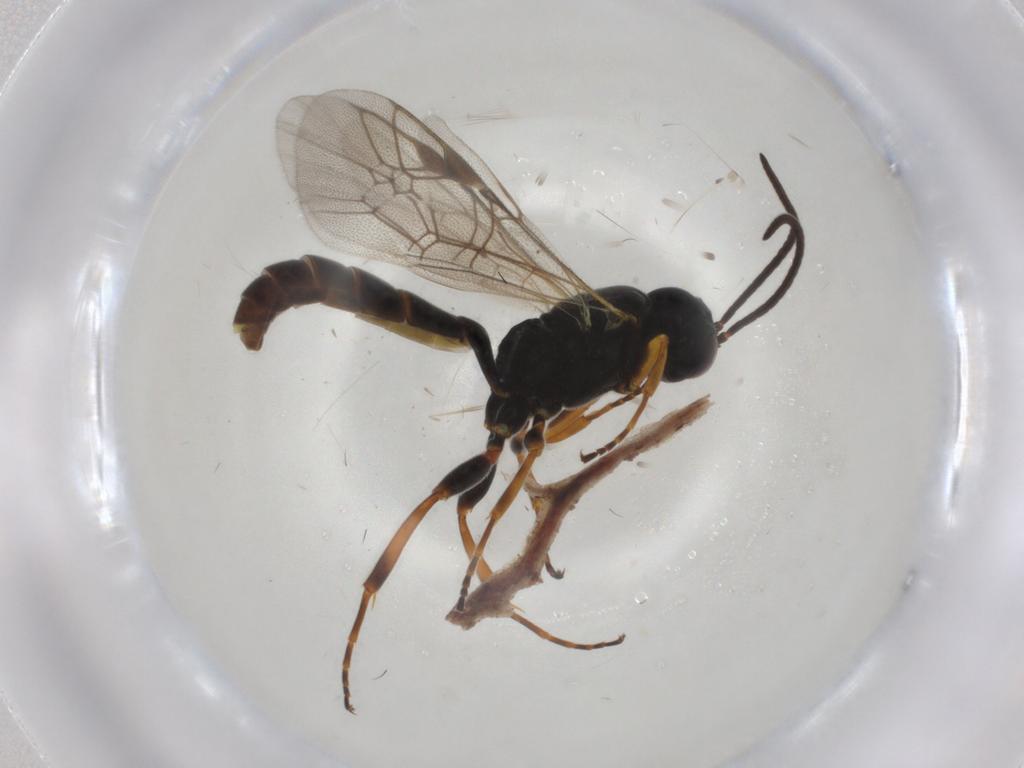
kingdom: Animalia
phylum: Arthropoda
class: Insecta
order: Hymenoptera
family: Ichneumonidae
